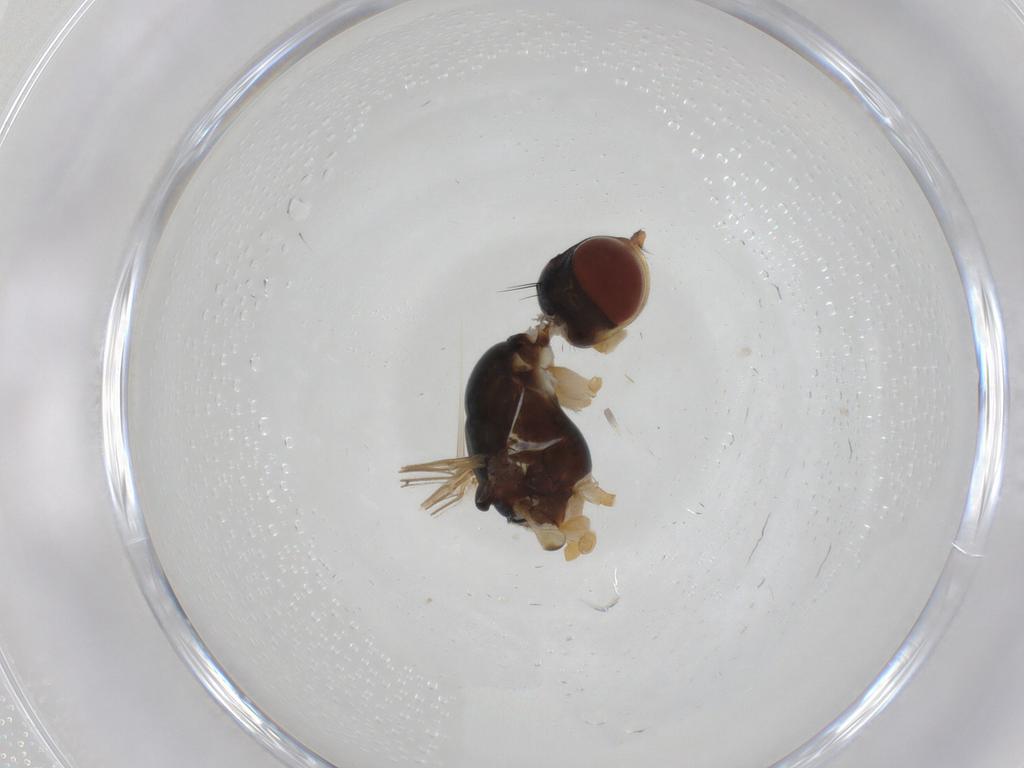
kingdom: Animalia
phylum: Arthropoda
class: Insecta
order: Diptera
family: Micropezidae
